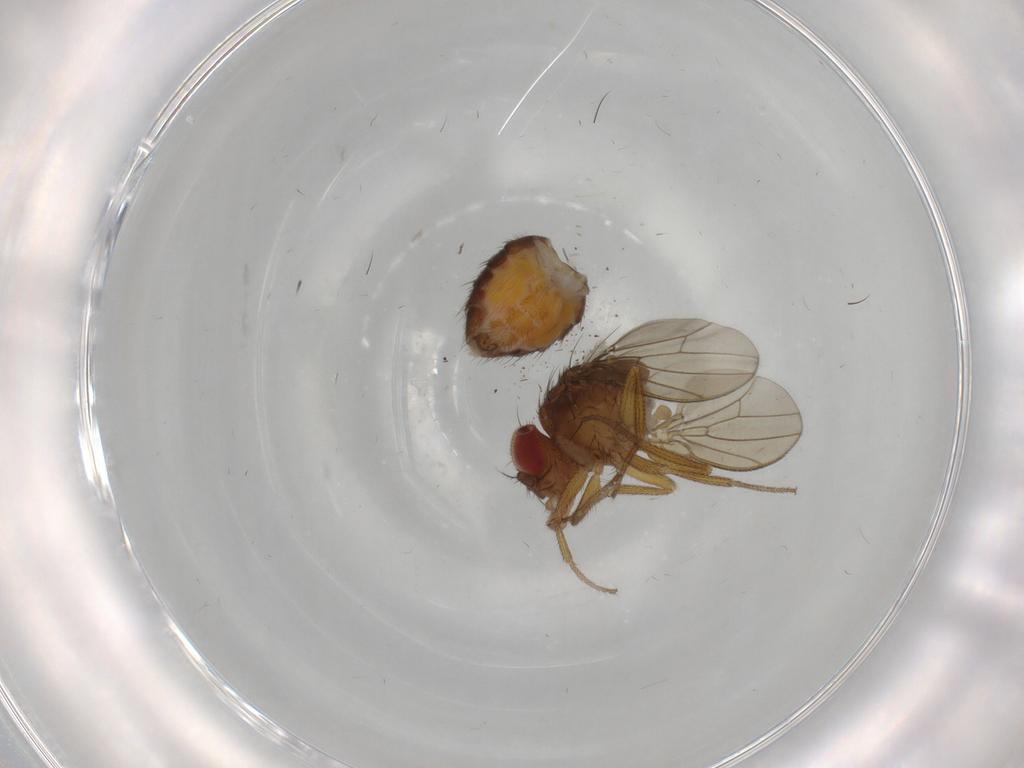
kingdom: Animalia
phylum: Arthropoda
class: Insecta
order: Diptera
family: Drosophilidae
